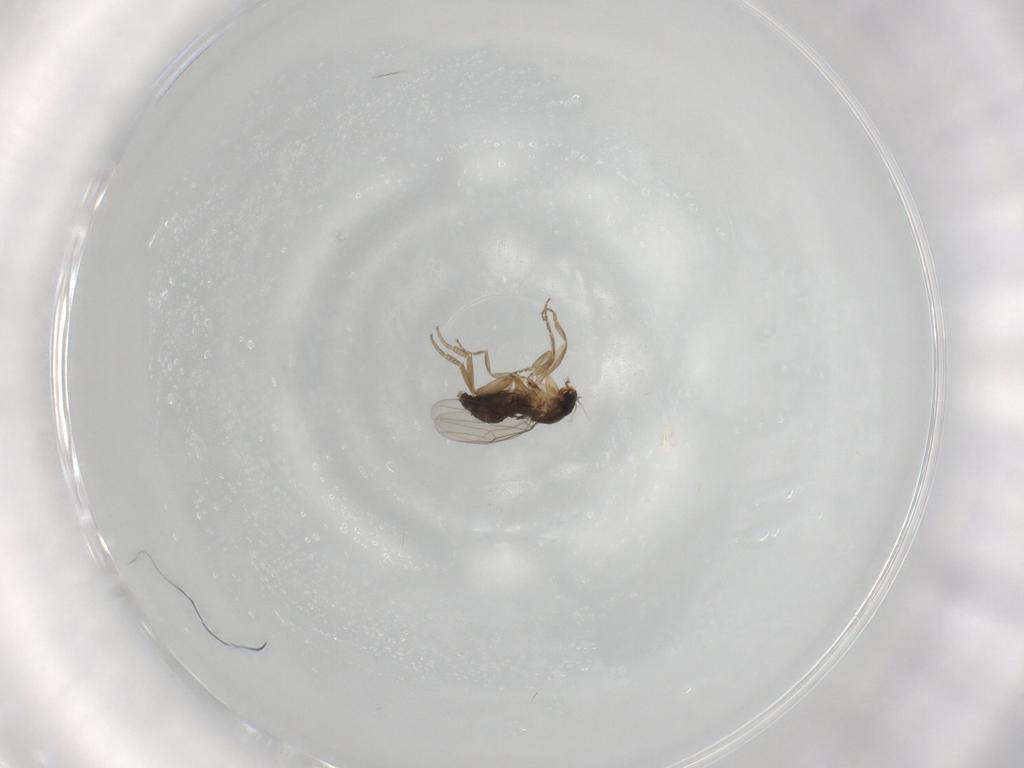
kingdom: Animalia
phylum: Arthropoda
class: Insecta
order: Diptera
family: Phoridae
